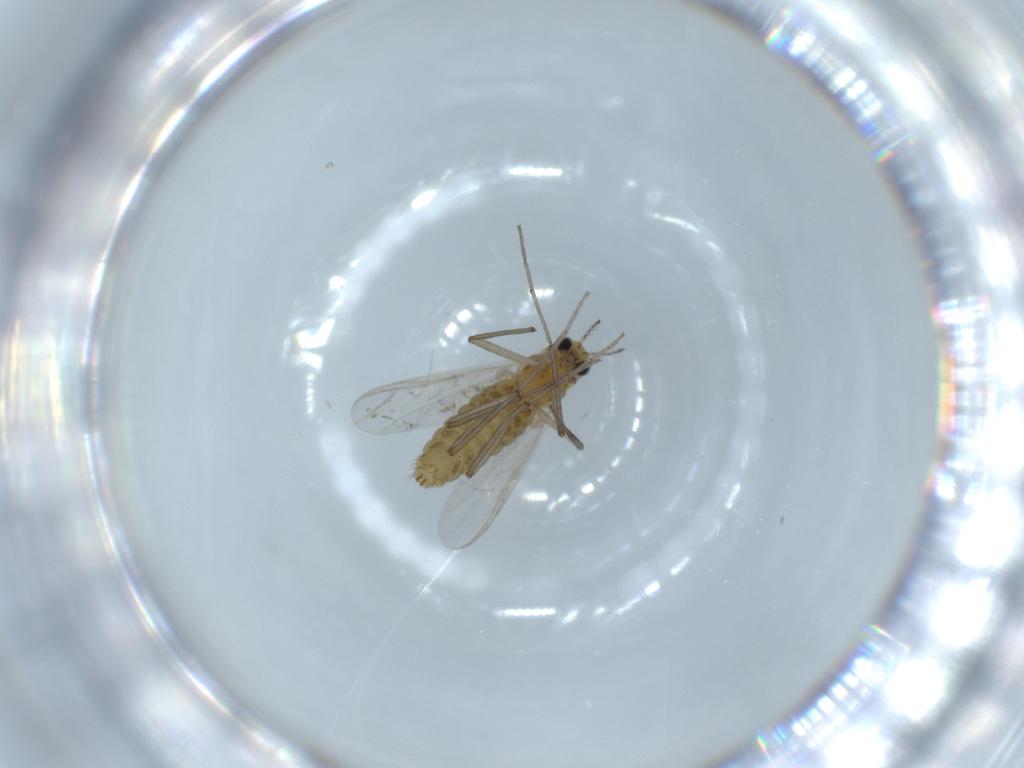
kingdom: Animalia
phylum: Arthropoda
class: Insecta
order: Diptera
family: Chironomidae
